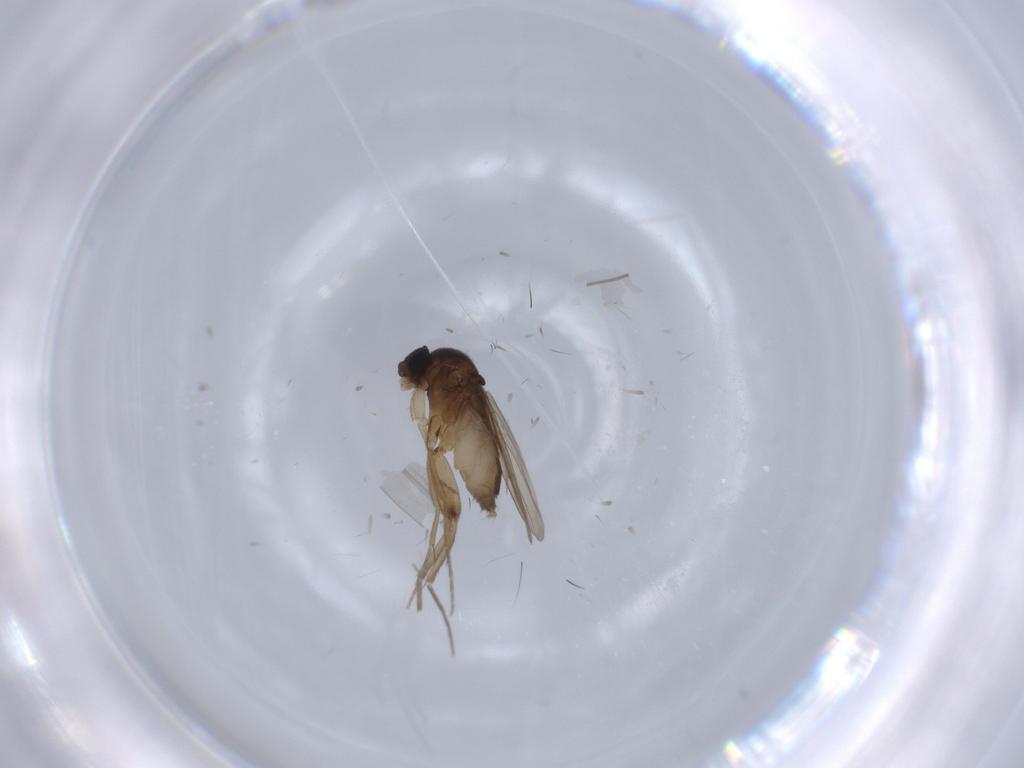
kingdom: Animalia
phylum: Arthropoda
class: Insecta
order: Diptera
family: Phoridae
